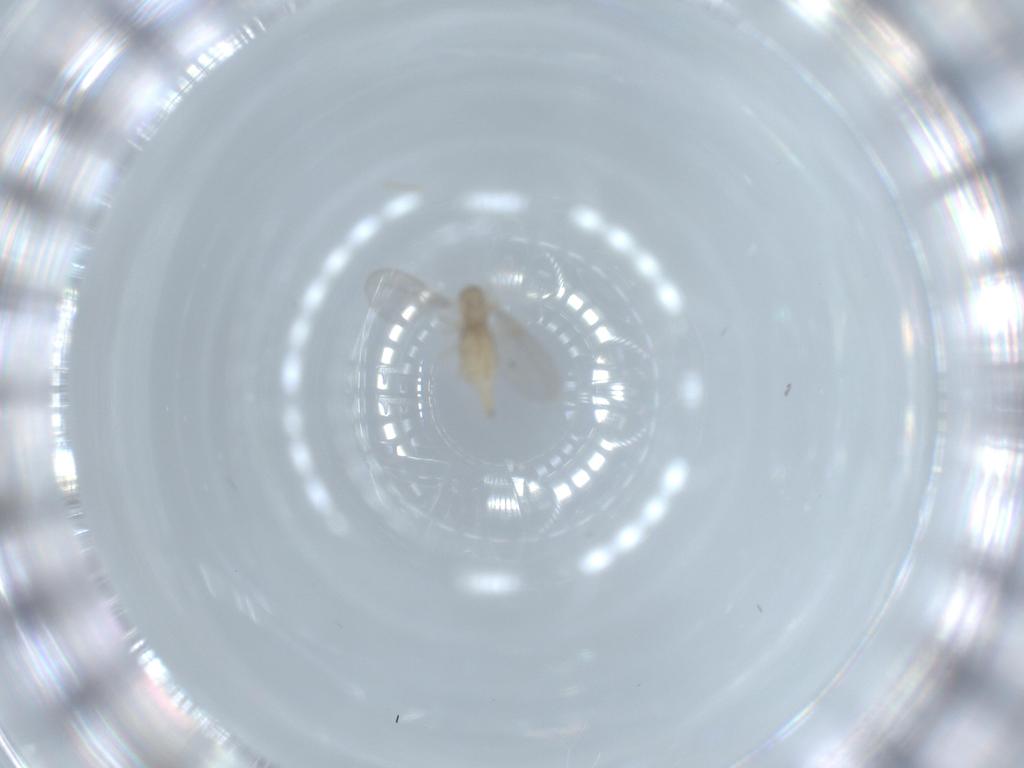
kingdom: Animalia
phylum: Arthropoda
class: Insecta
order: Diptera
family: Cecidomyiidae
